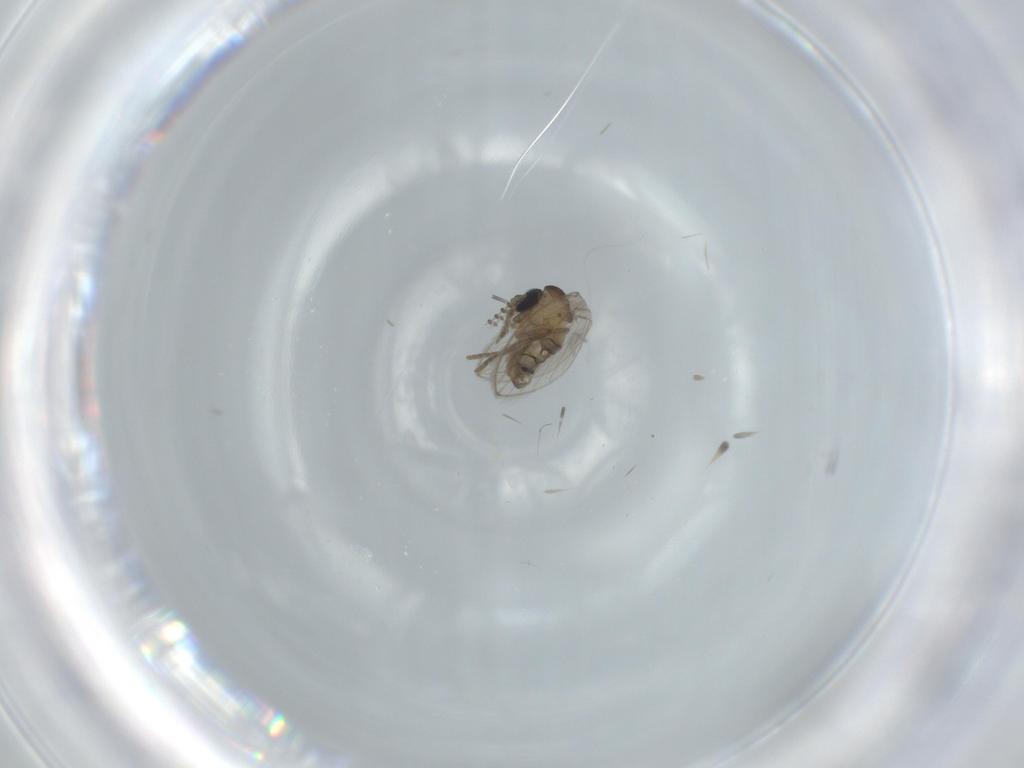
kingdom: Animalia
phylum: Arthropoda
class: Insecta
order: Diptera
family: Psychodidae
